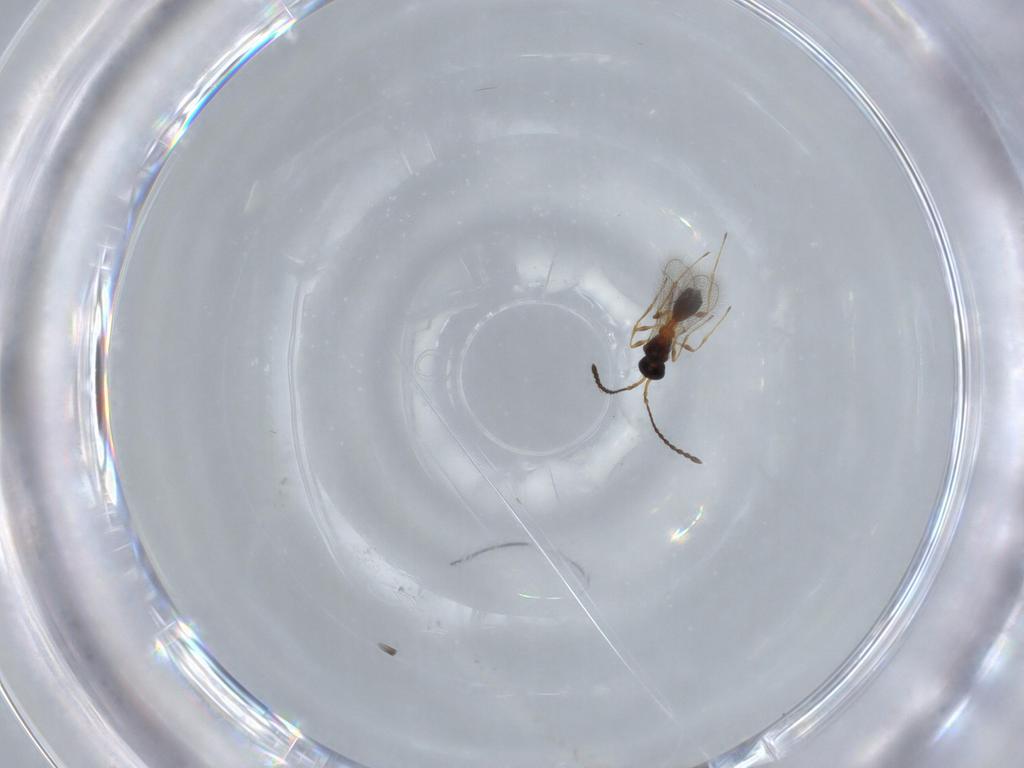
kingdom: Animalia
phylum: Arthropoda
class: Insecta
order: Hymenoptera
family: Diapriidae
